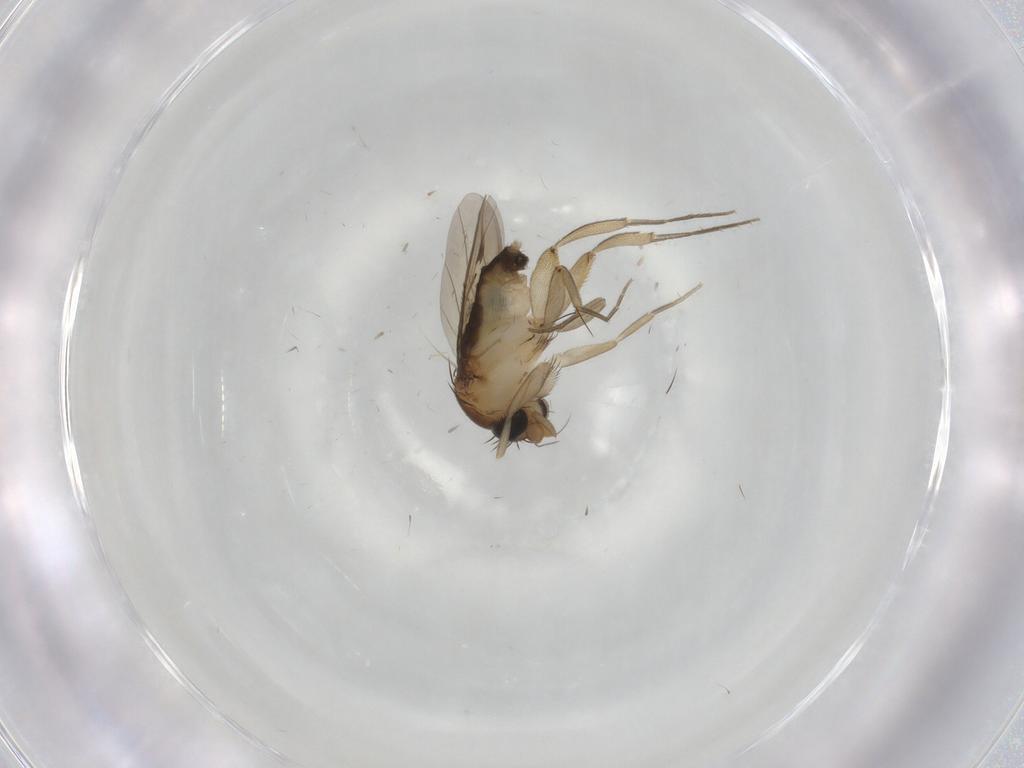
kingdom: Animalia
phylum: Arthropoda
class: Insecta
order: Diptera
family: Phoridae
